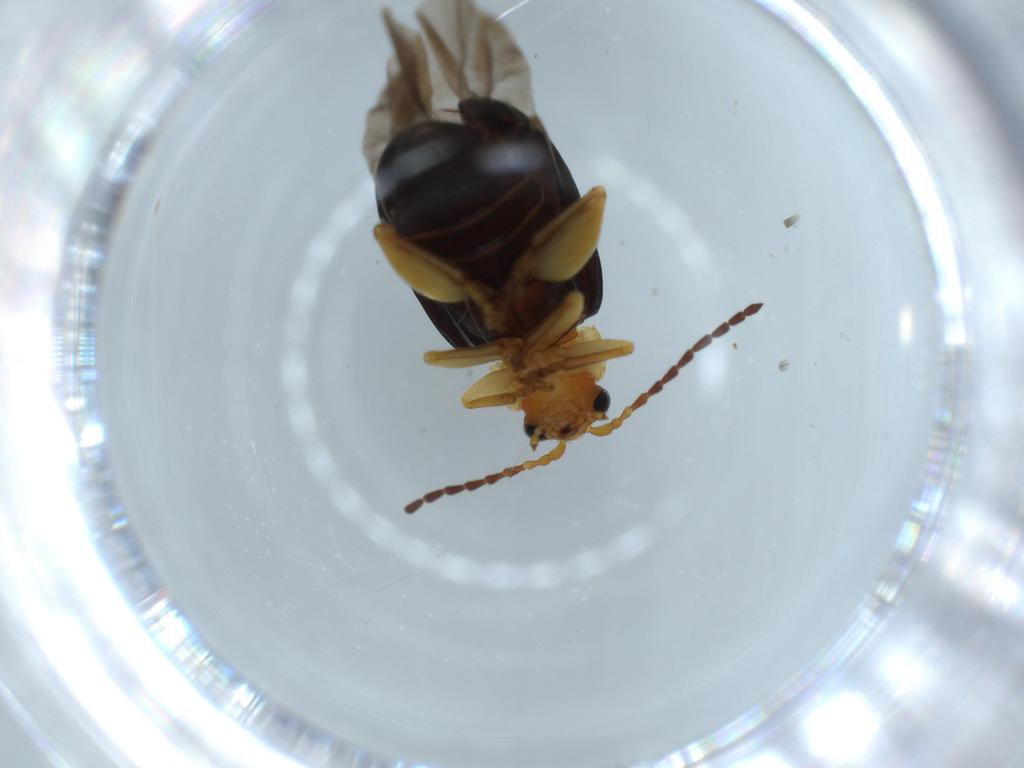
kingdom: Animalia
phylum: Arthropoda
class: Insecta
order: Coleoptera
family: Chrysomelidae
